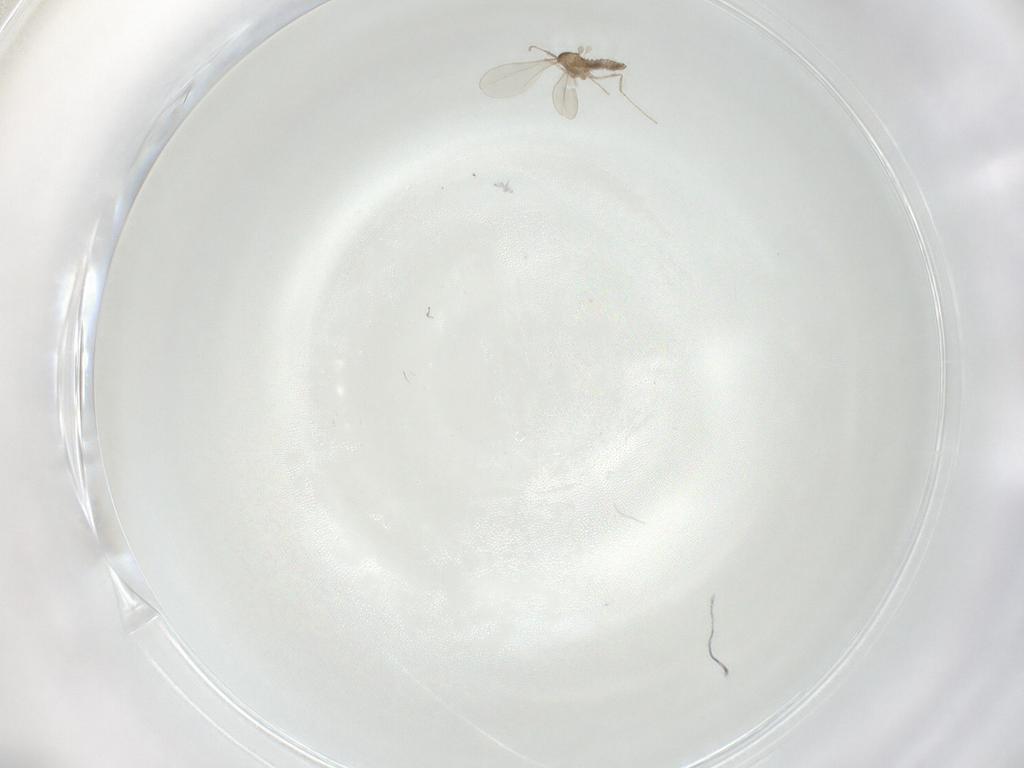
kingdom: Animalia
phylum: Arthropoda
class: Insecta
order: Diptera
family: Cecidomyiidae
